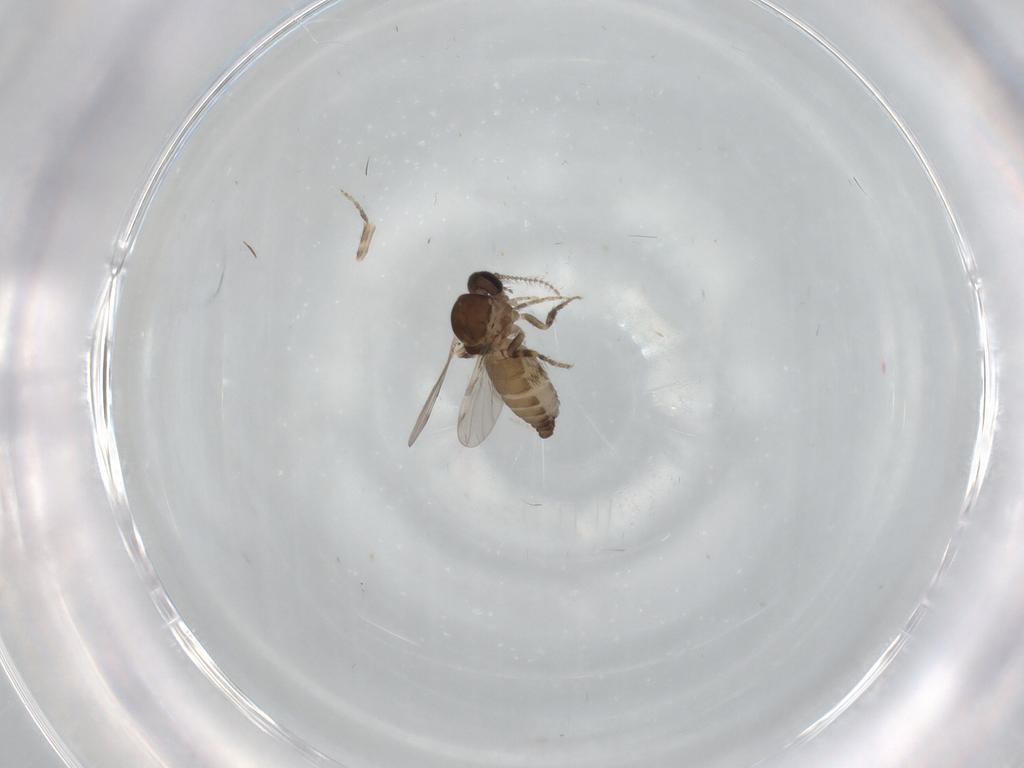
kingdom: Animalia
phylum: Arthropoda
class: Insecta
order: Diptera
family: Ceratopogonidae
